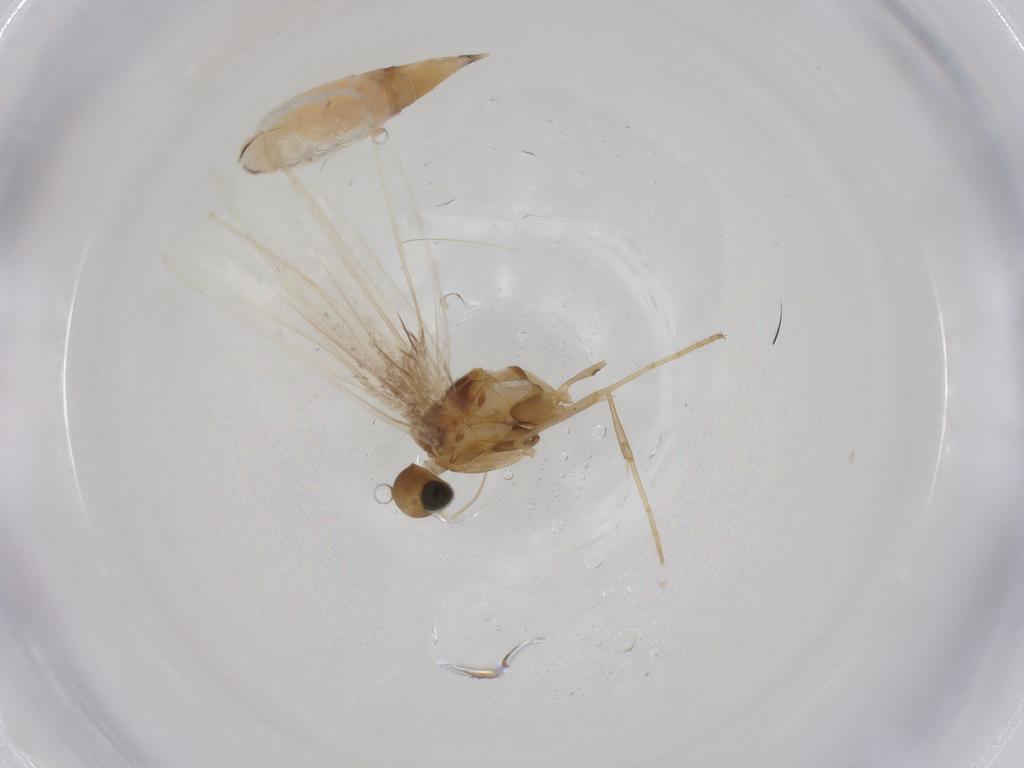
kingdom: Animalia
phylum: Arthropoda
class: Insecta
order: Lepidoptera
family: Gracillariidae
